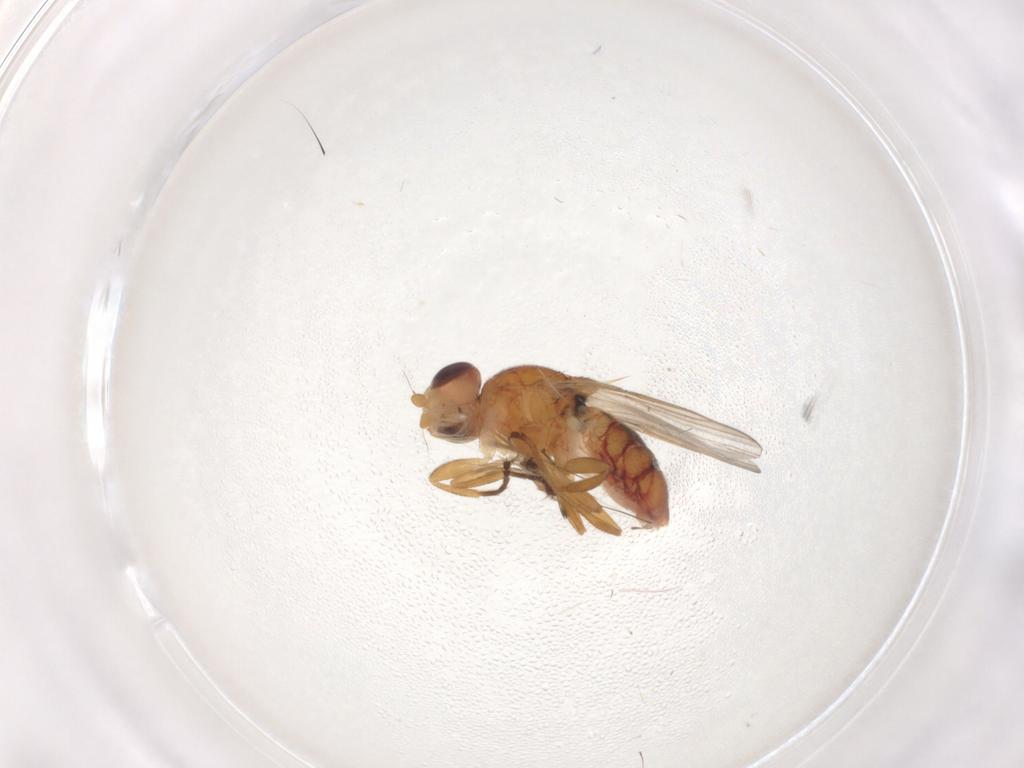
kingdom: Animalia
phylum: Arthropoda
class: Insecta
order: Diptera
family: Chloropidae
